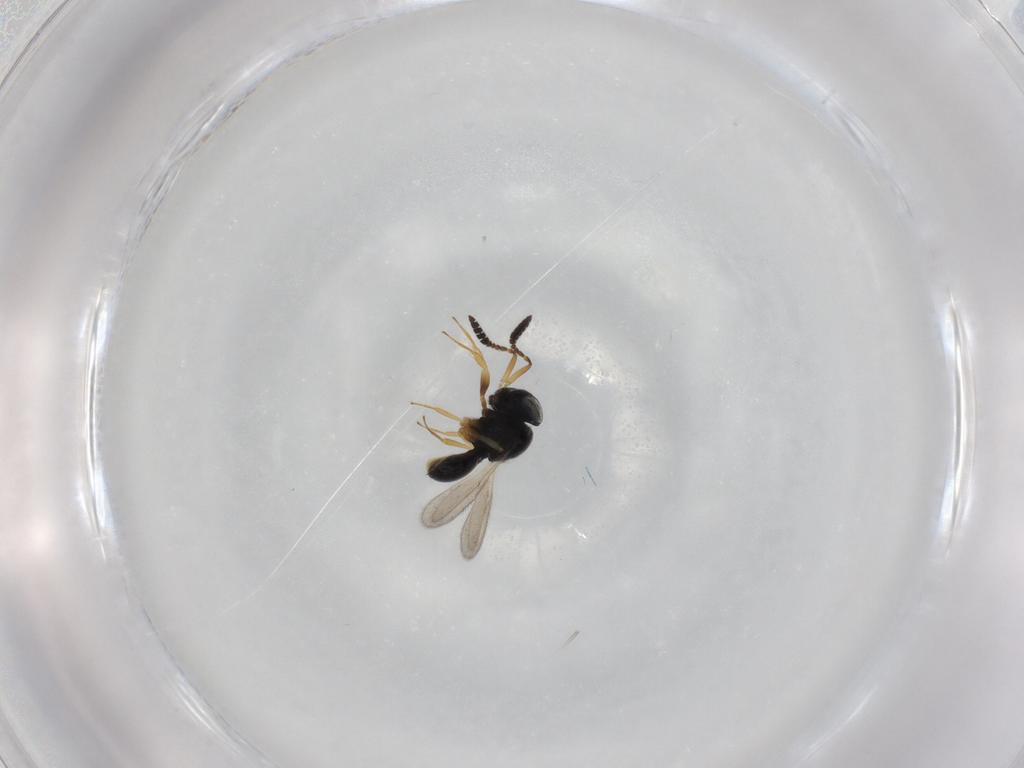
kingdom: Animalia
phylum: Arthropoda
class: Insecta
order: Hymenoptera
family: Scelionidae
